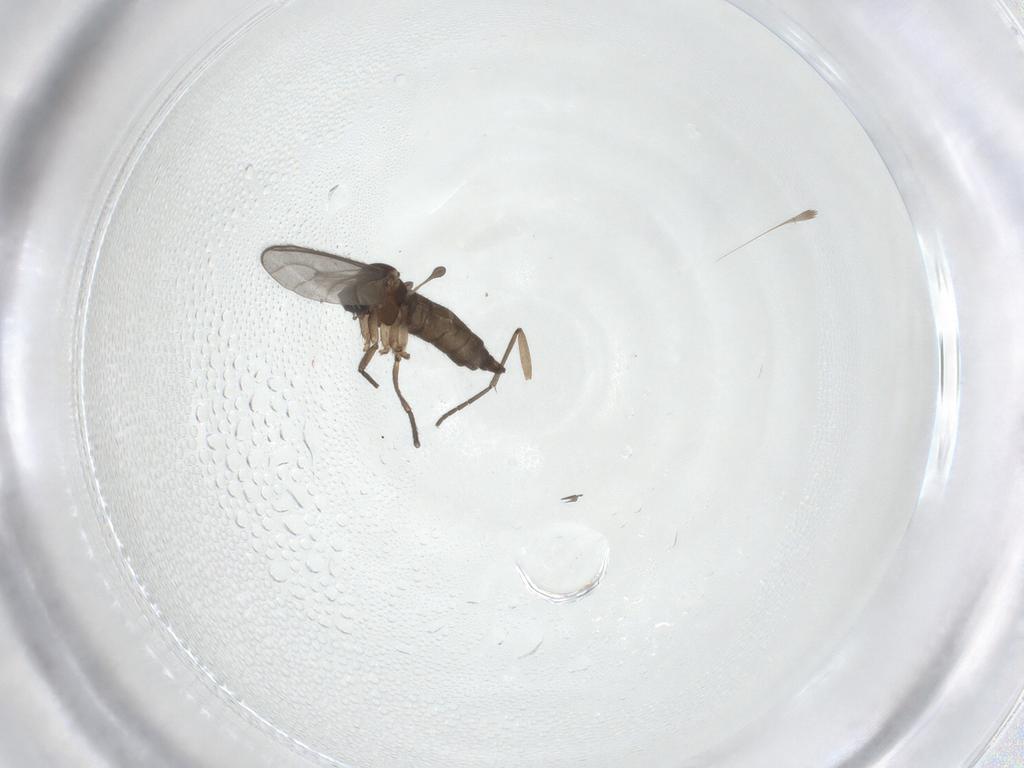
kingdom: Animalia
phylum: Arthropoda
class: Insecta
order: Diptera
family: Sciaridae
